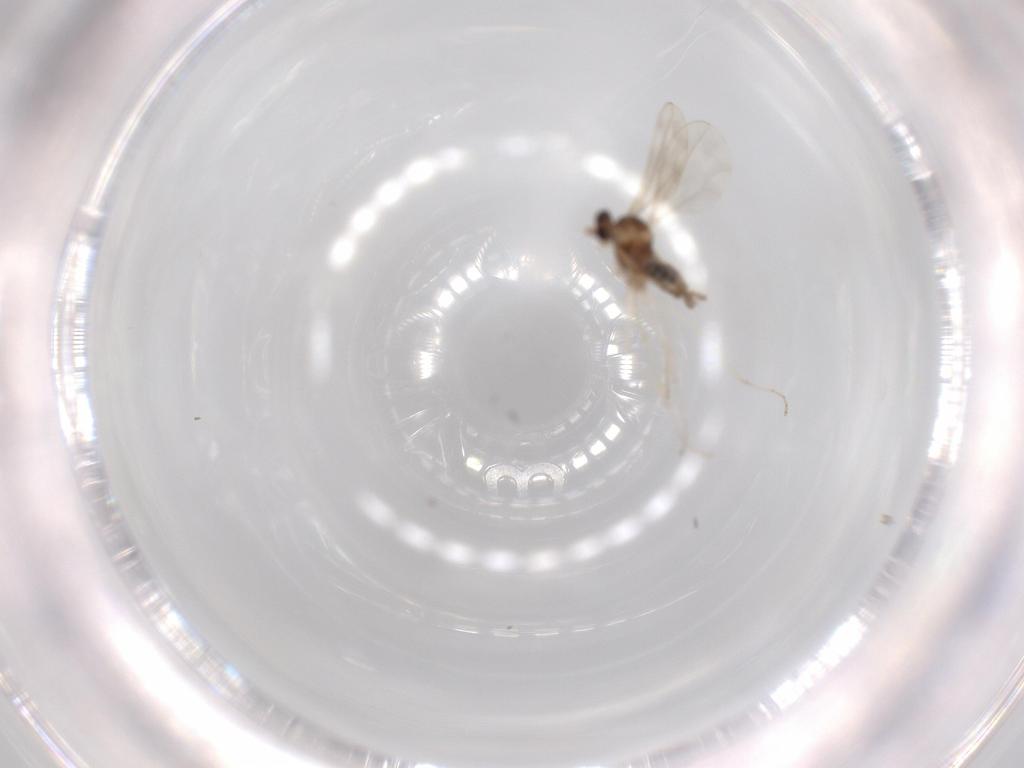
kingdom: Animalia
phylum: Arthropoda
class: Insecta
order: Diptera
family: Cecidomyiidae
